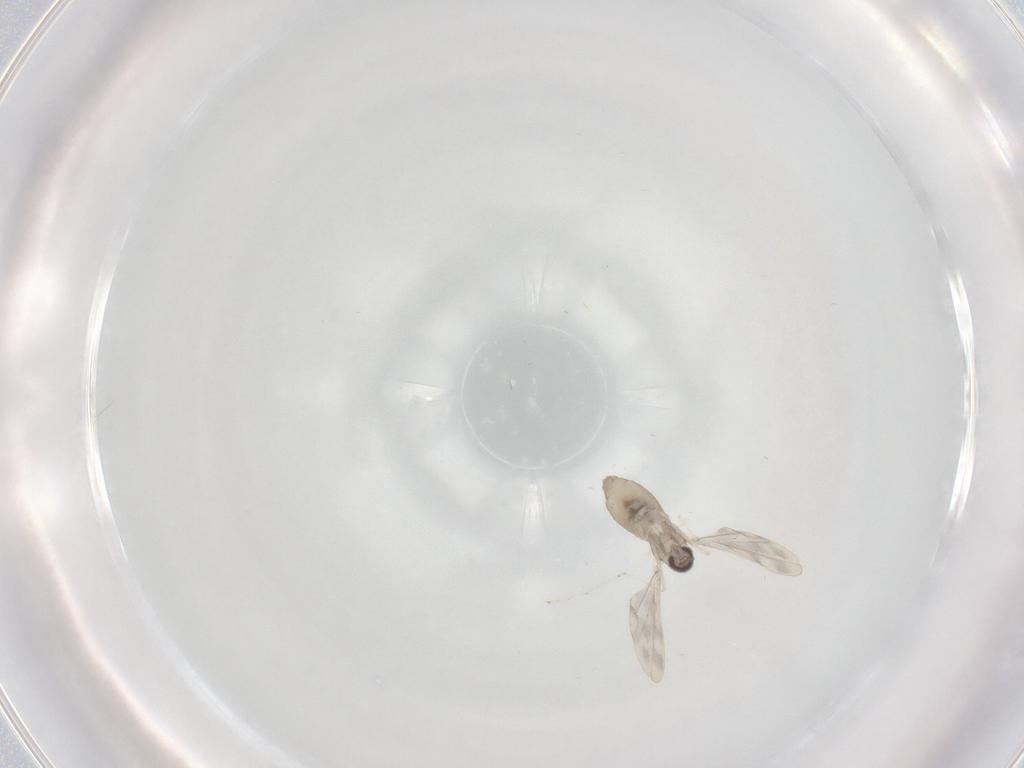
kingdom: Animalia
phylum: Arthropoda
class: Insecta
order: Diptera
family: Cecidomyiidae
